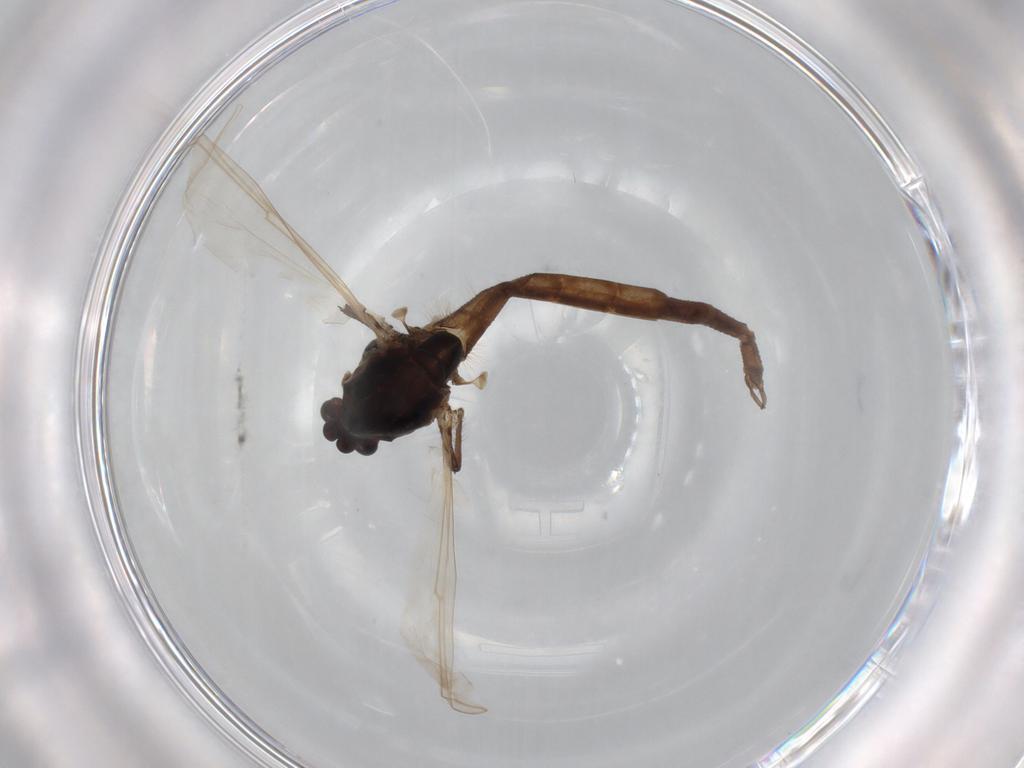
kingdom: Animalia
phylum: Arthropoda
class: Insecta
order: Diptera
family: Chironomidae
